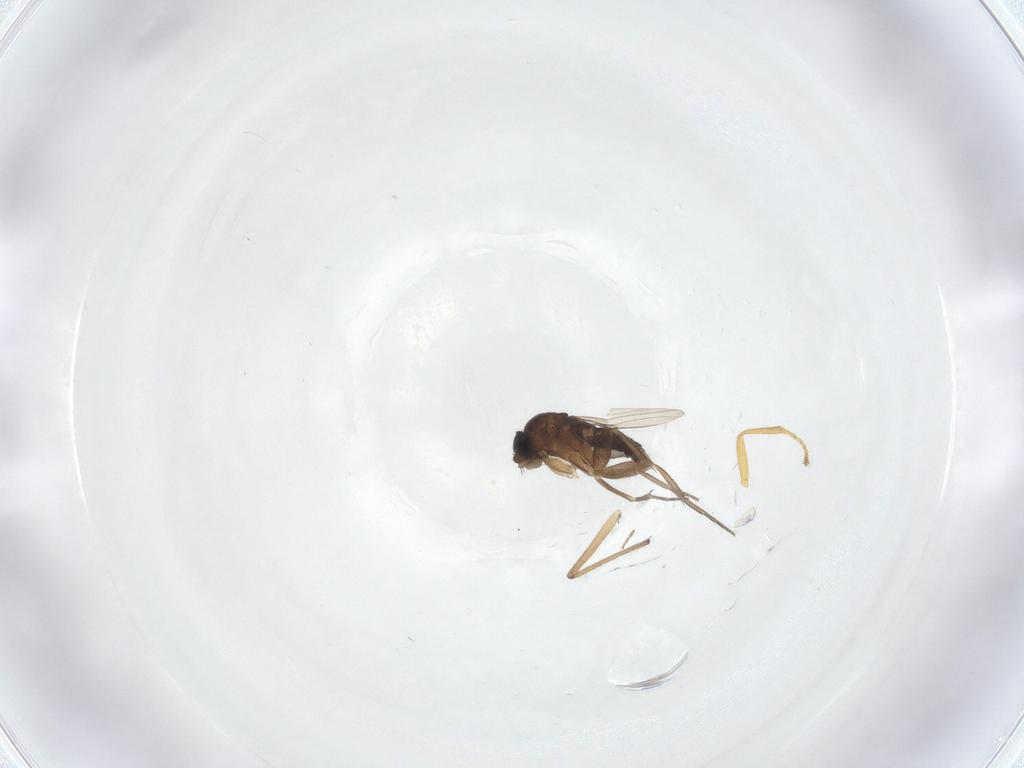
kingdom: Animalia
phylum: Arthropoda
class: Insecta
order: Diptera
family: Phoridae
